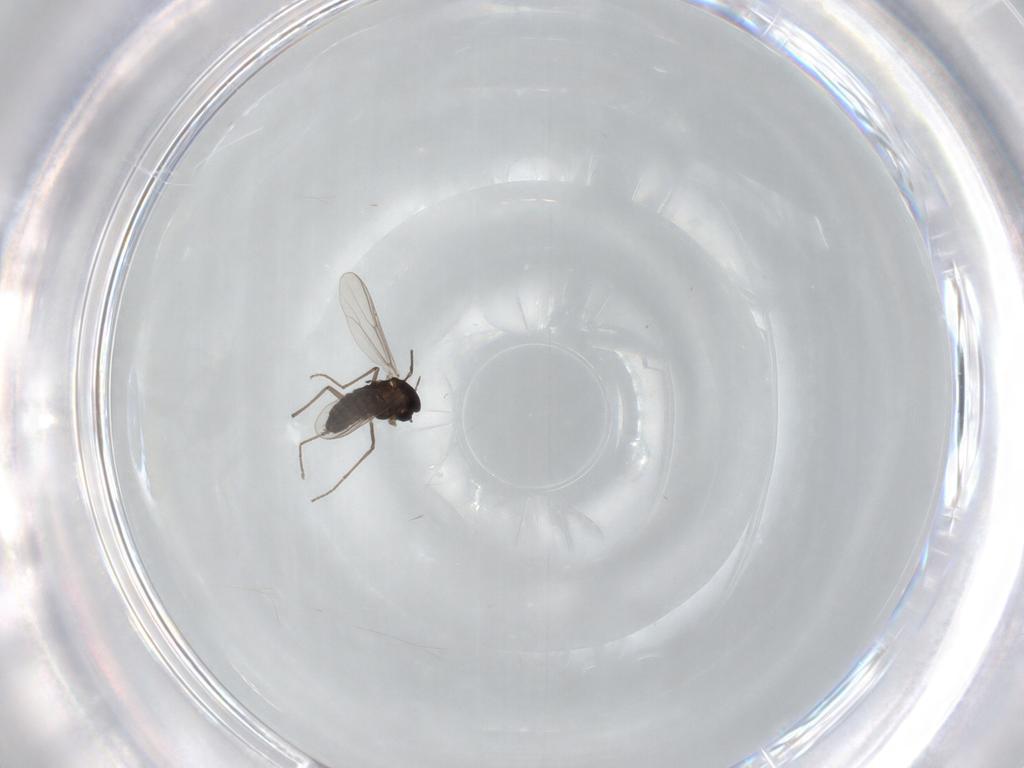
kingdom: Animalia
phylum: Arthropoda
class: Insecta
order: Diptera
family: Chironomidae
